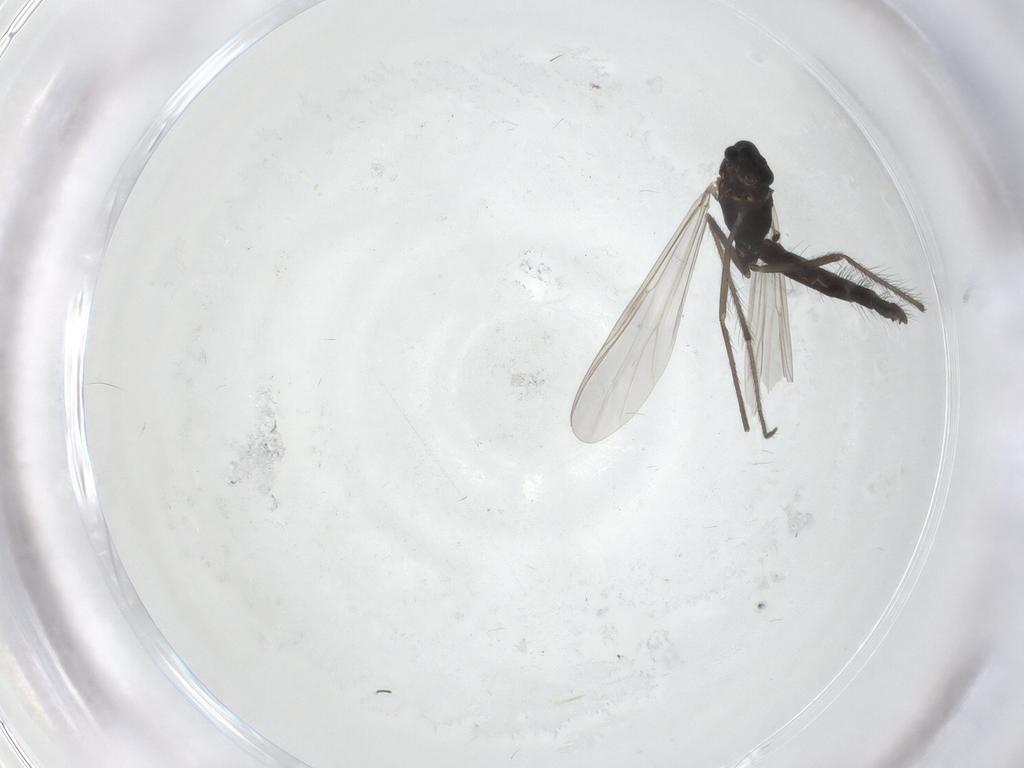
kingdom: Animalia
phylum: Arthropoda
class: Insecta
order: Diptera
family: Chironomidae
